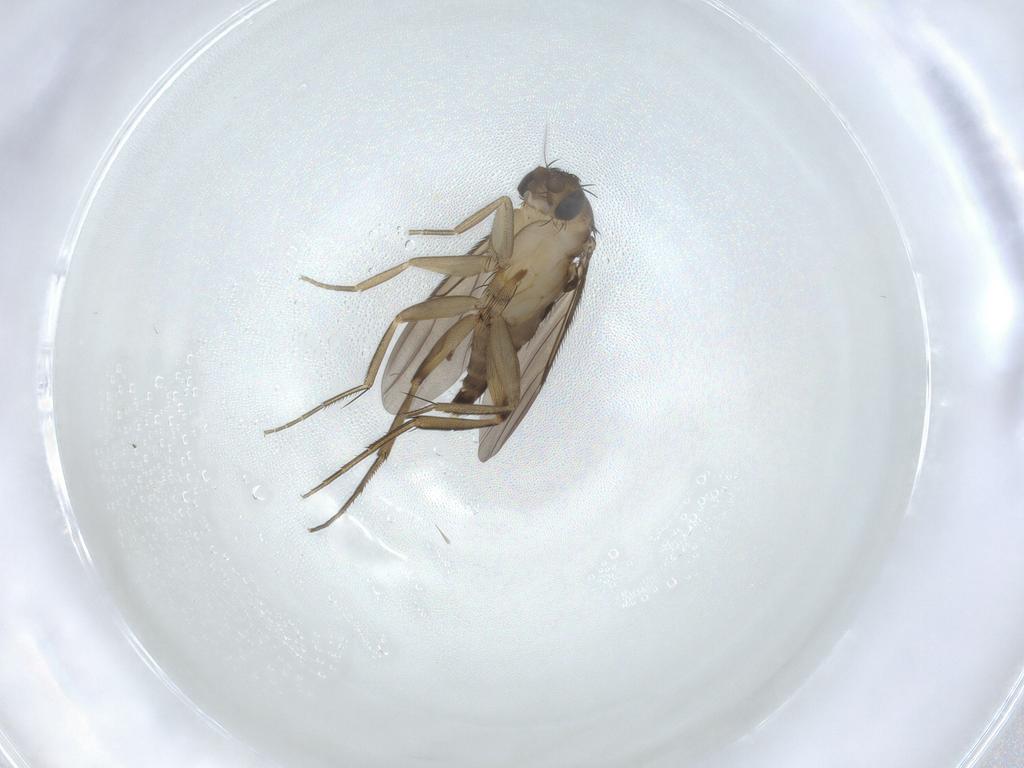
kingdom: Animalia
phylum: Arthropoda
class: Insecta
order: Diptera
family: Phoridae
